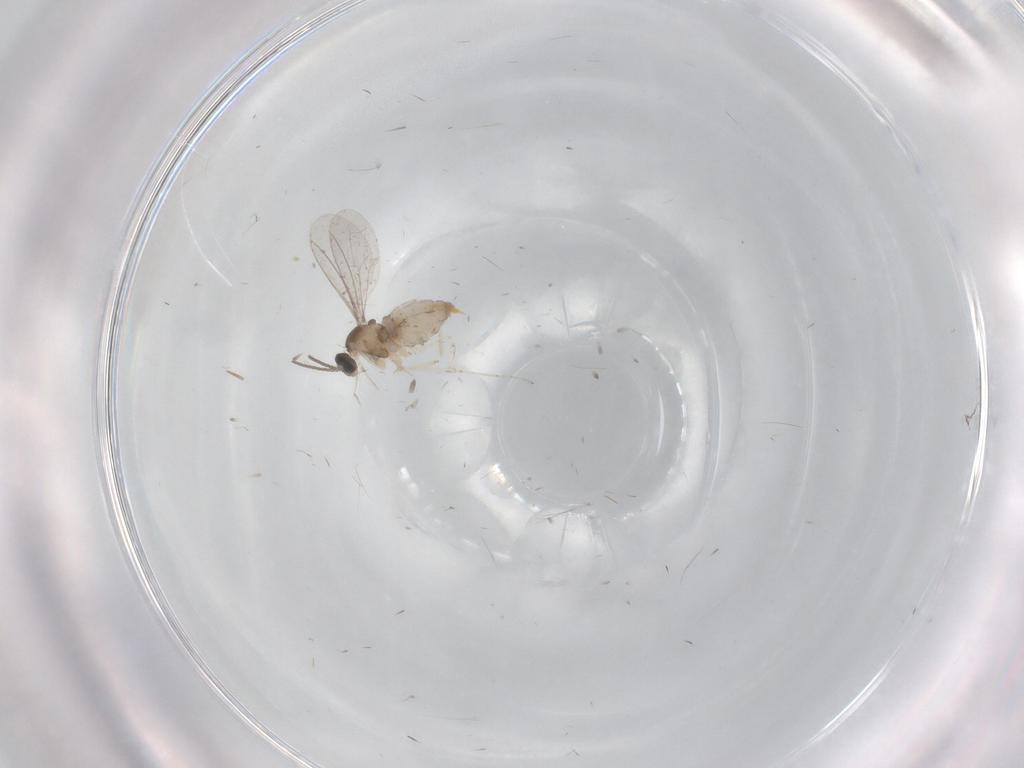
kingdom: Animalia
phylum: Arthropoda
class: Insecta
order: Diptera
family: Cecidomyiidae
